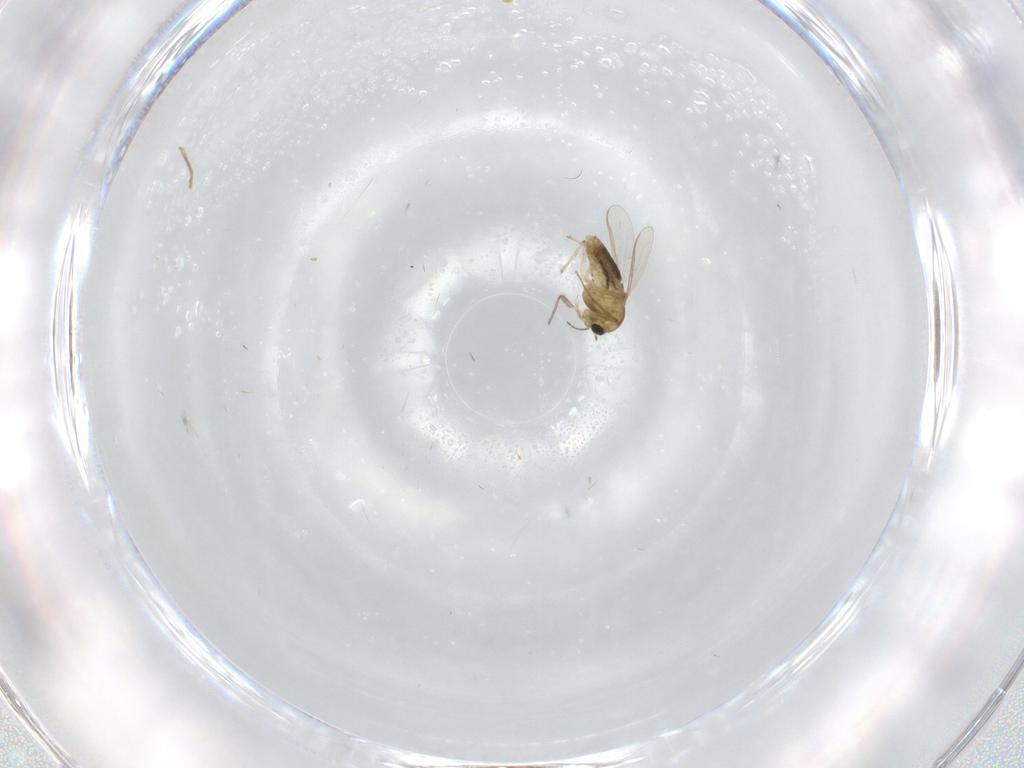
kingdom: Animalia
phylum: Arthropoda
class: Insecta
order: Diptera
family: Chironomidae
